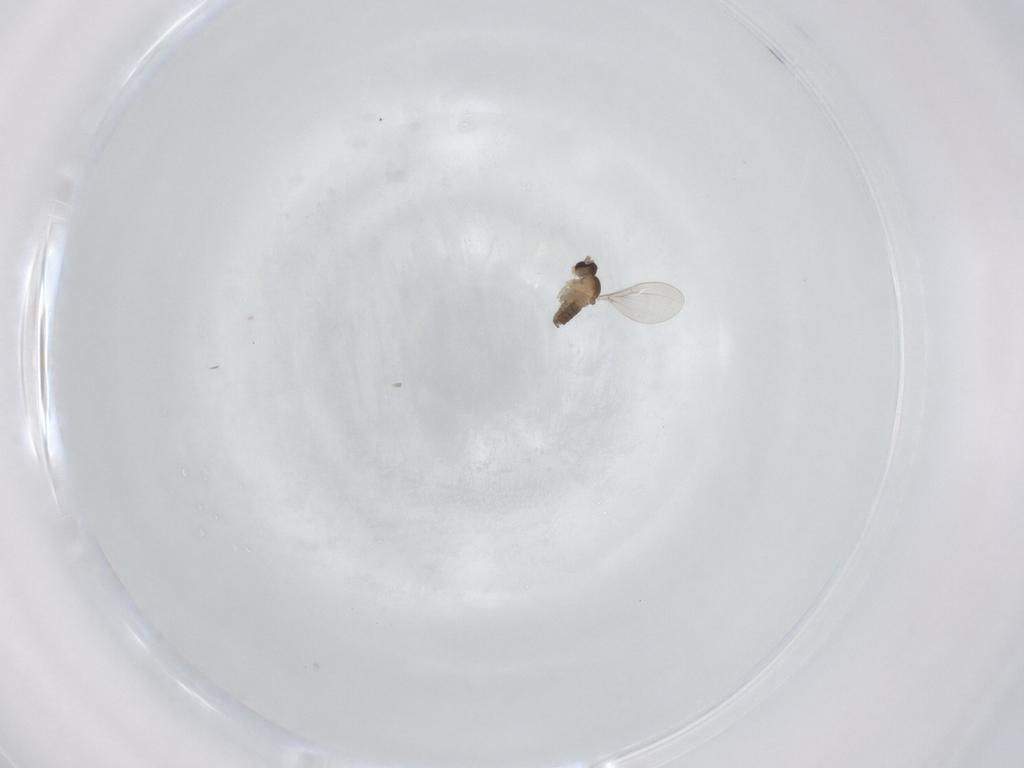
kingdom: Animalia
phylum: Arthropoda
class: Insecta
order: Diptera
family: Cecidomyiidae
